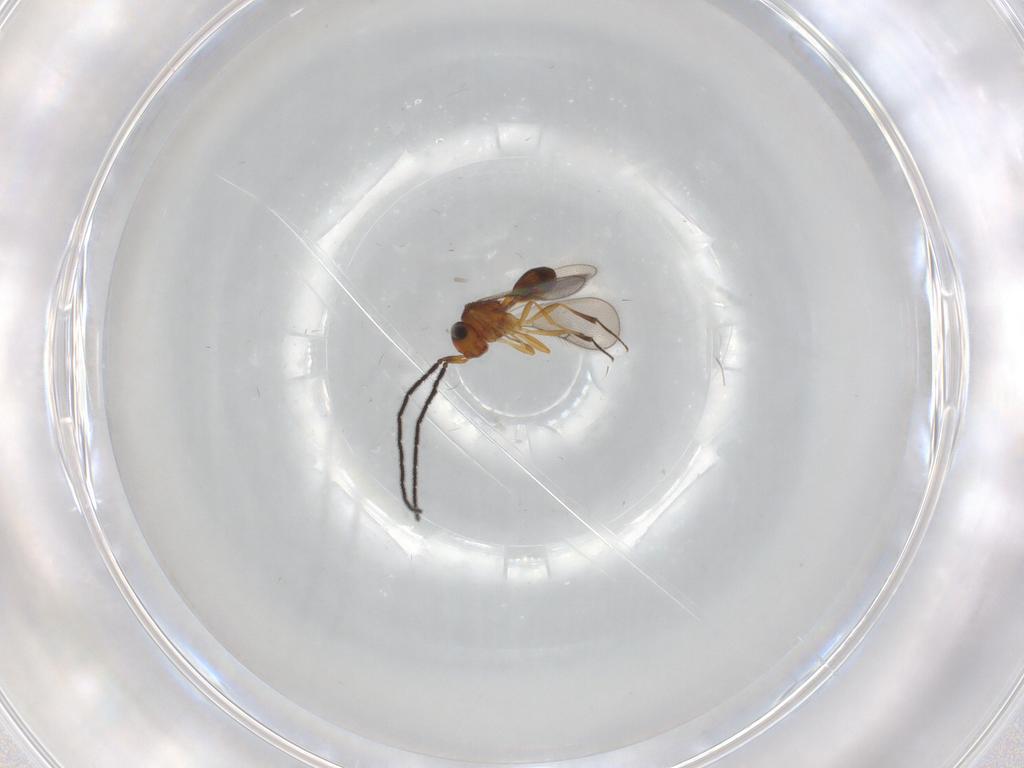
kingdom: Animalia
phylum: Arthropoda
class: Insecta
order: Hymenoptera
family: Scelionidae
